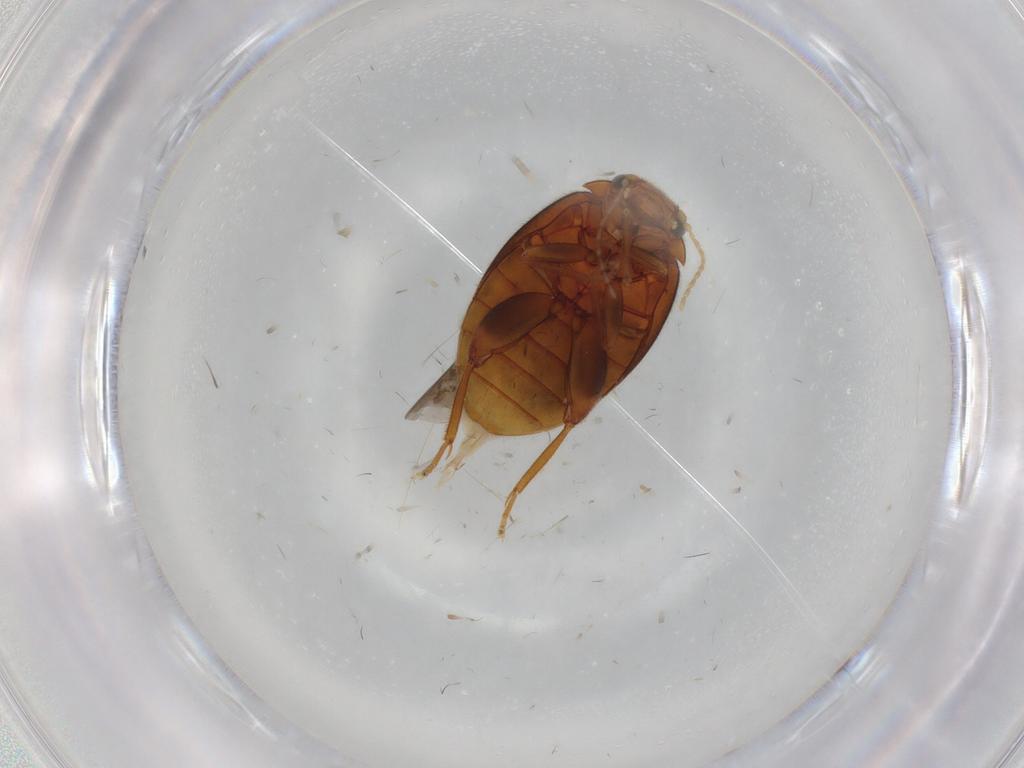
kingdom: Animalia
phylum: Arthropoda
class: Insecta
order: Coleoptera
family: Scirtidae
